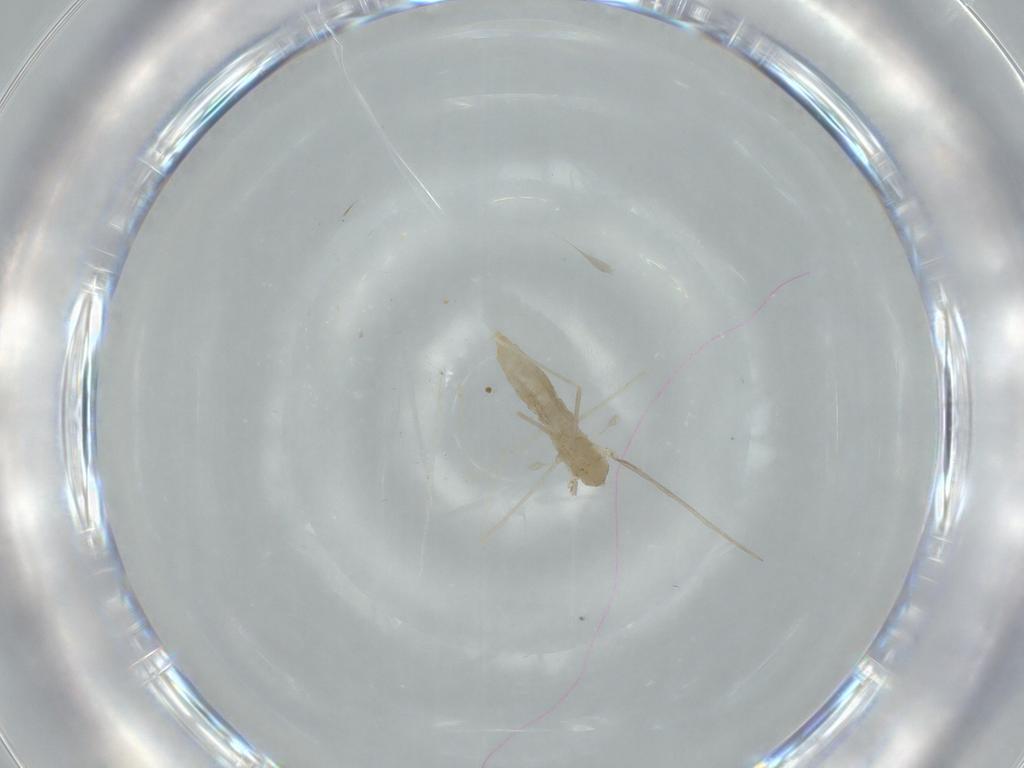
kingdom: Animalia
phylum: Arthropoda
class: Insecta
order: Diptera
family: Cecidomyiidae
